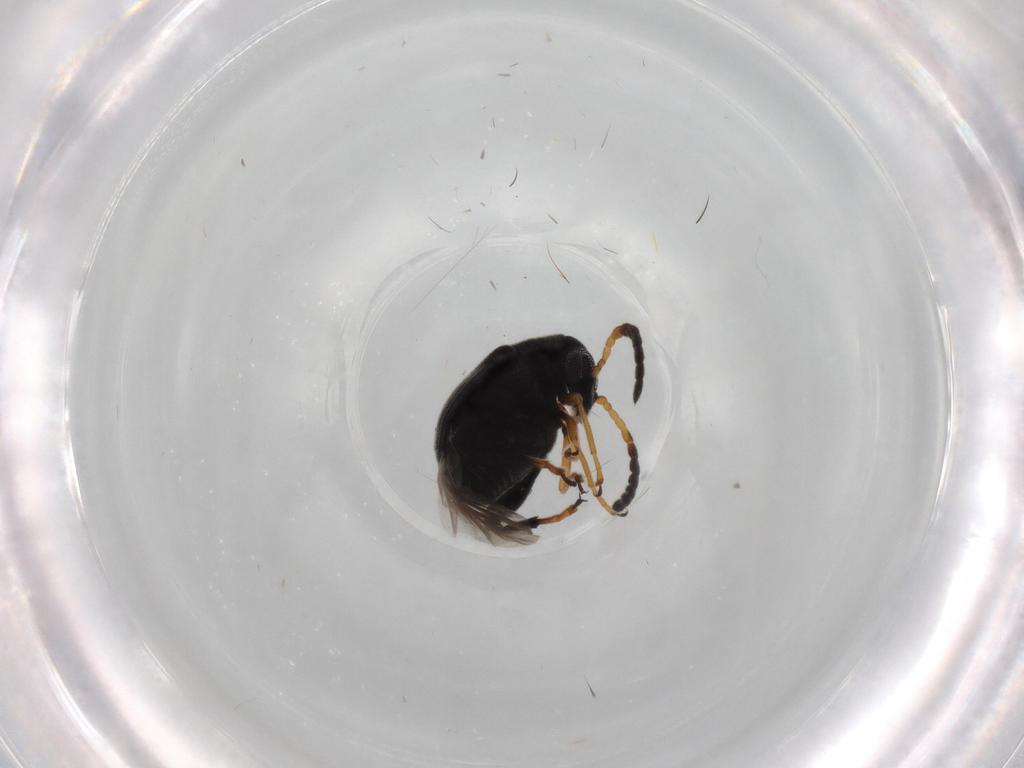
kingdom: Animalia
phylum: Arthropoda
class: Insecta
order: Coleoptera
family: Chrysomelidae
